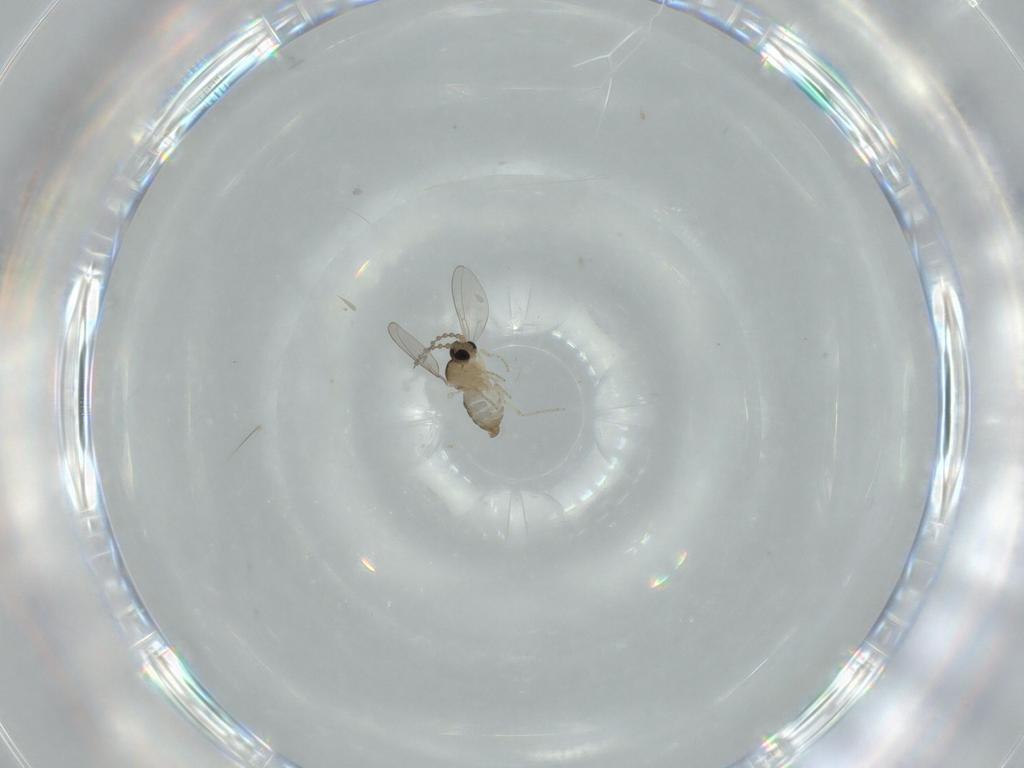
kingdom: Animalia
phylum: Arthropoda
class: Insecta
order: Diptera
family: Cecidomyiidae
